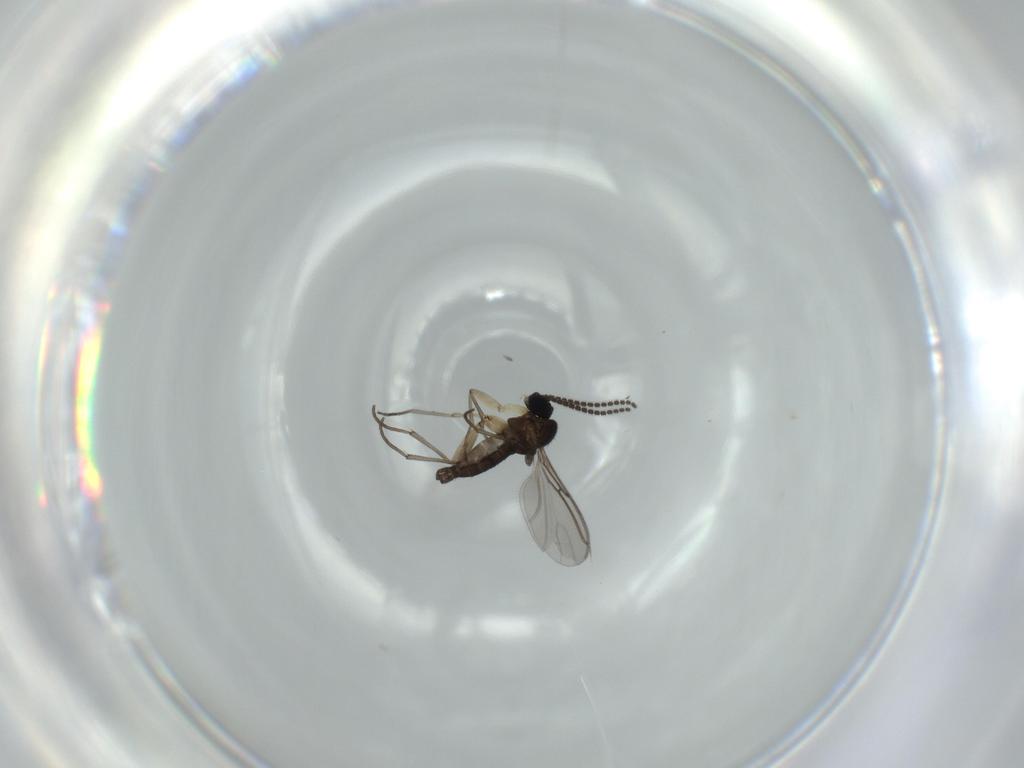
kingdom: Animalia
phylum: Arthropoda
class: Insecta
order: Diptera
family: Sciaridae
